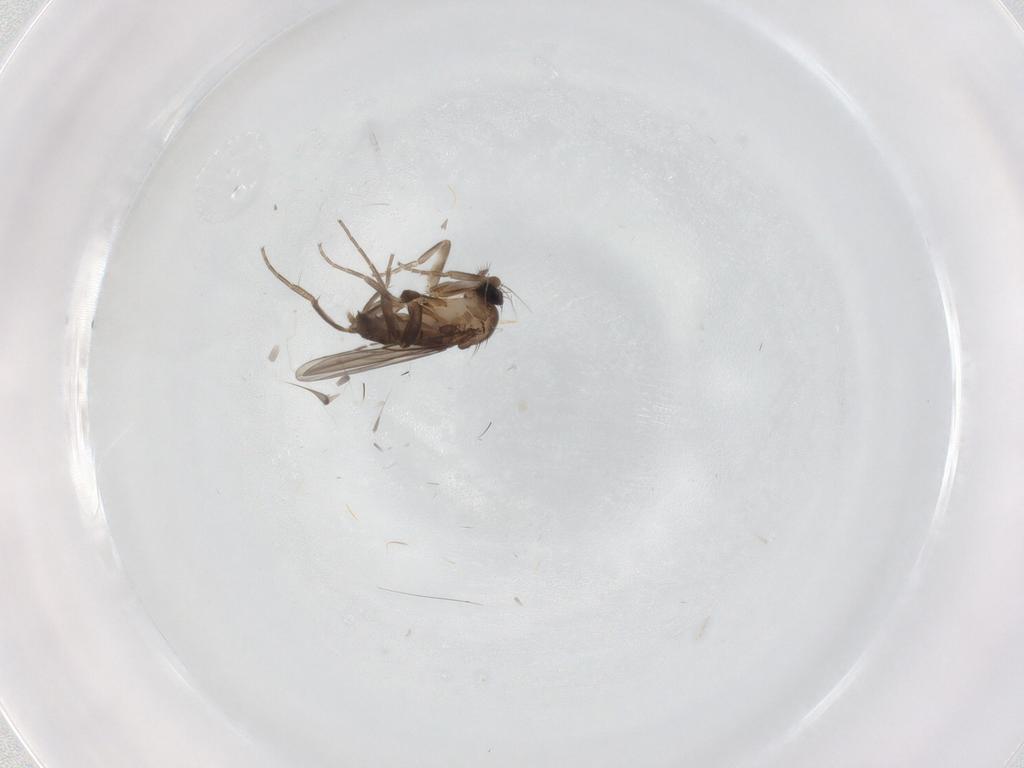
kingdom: Animalia
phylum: Arthropoda
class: Insecta
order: Diptera
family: Phoridae
